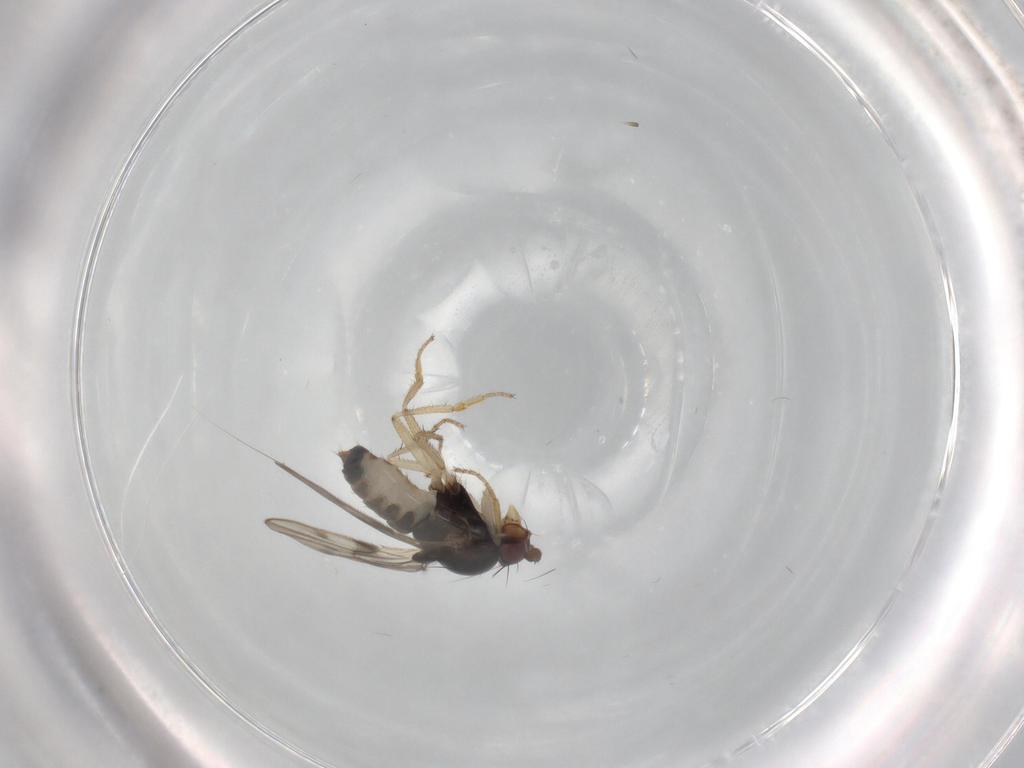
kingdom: Animalia
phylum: Arthropoda
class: Insecta
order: Diptera
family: Sphaeroceridae
